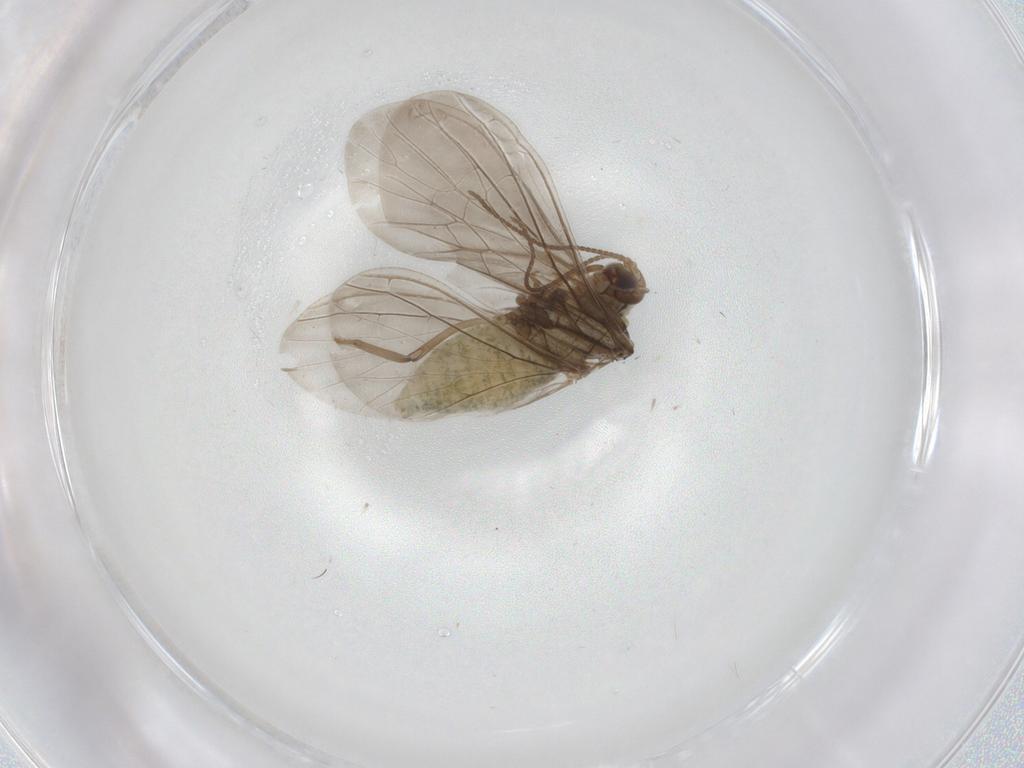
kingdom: Animalia
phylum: Arthropoda
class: Insecta
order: Neuroptera
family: Coniopterygidae
